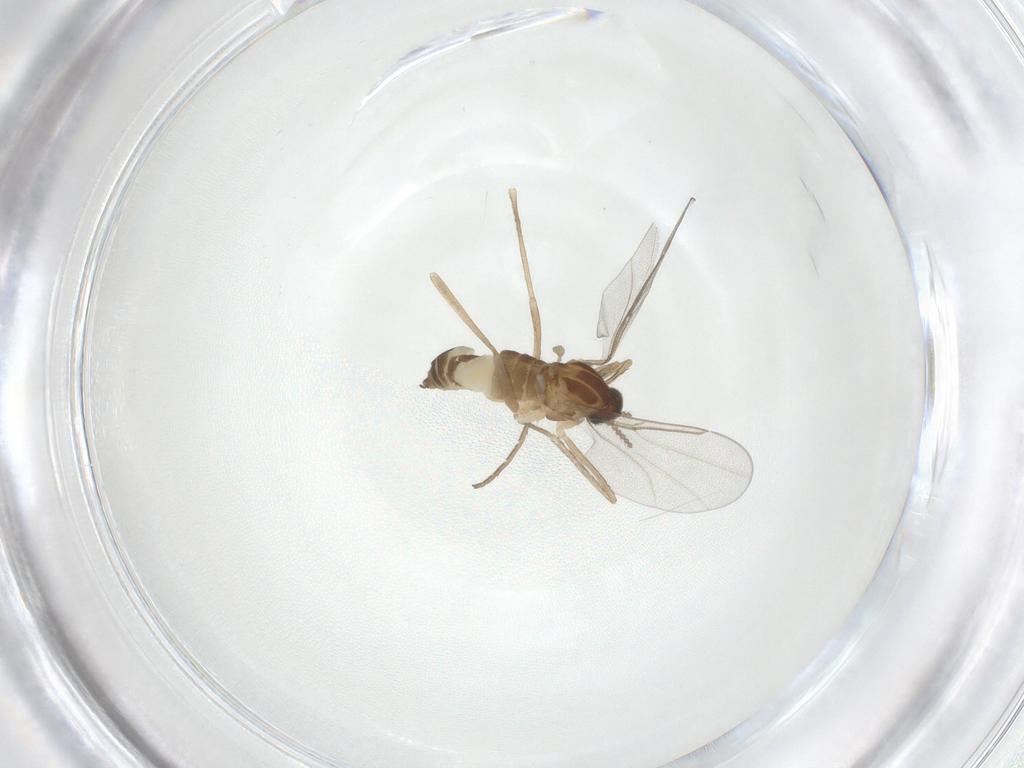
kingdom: Animalia
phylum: Arthropoda
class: Insecta
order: Diptera
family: Cecidomyiidae
